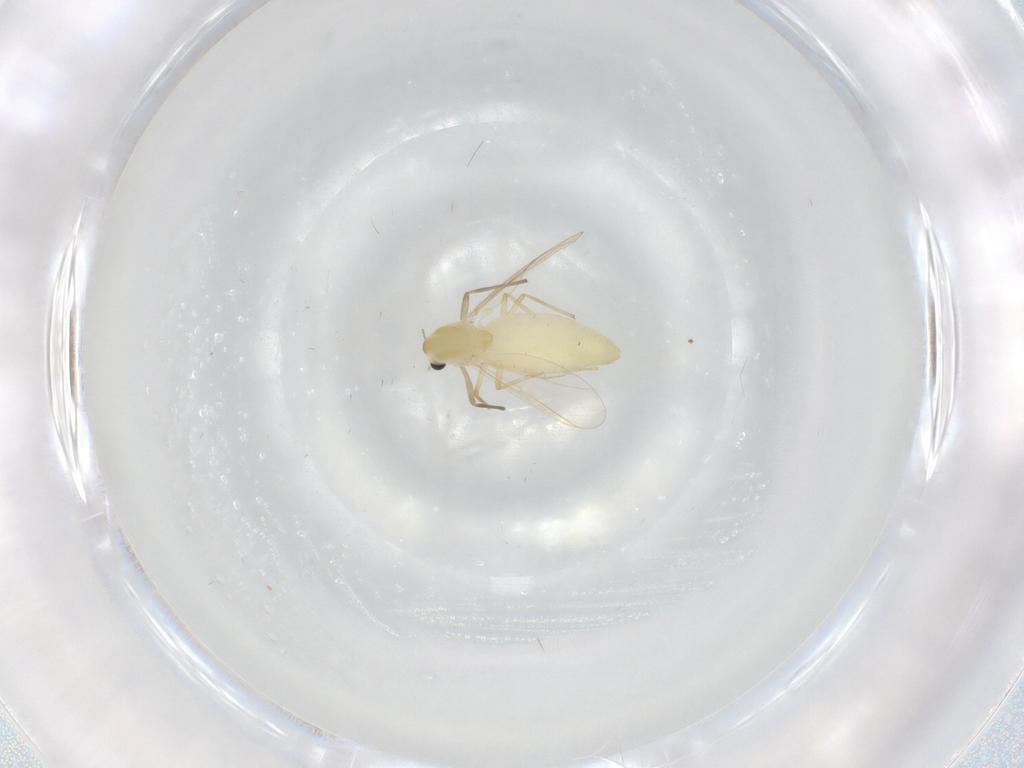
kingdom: Animalia
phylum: Arthropoda
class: Insecta
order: Diptera
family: Chironomidae
